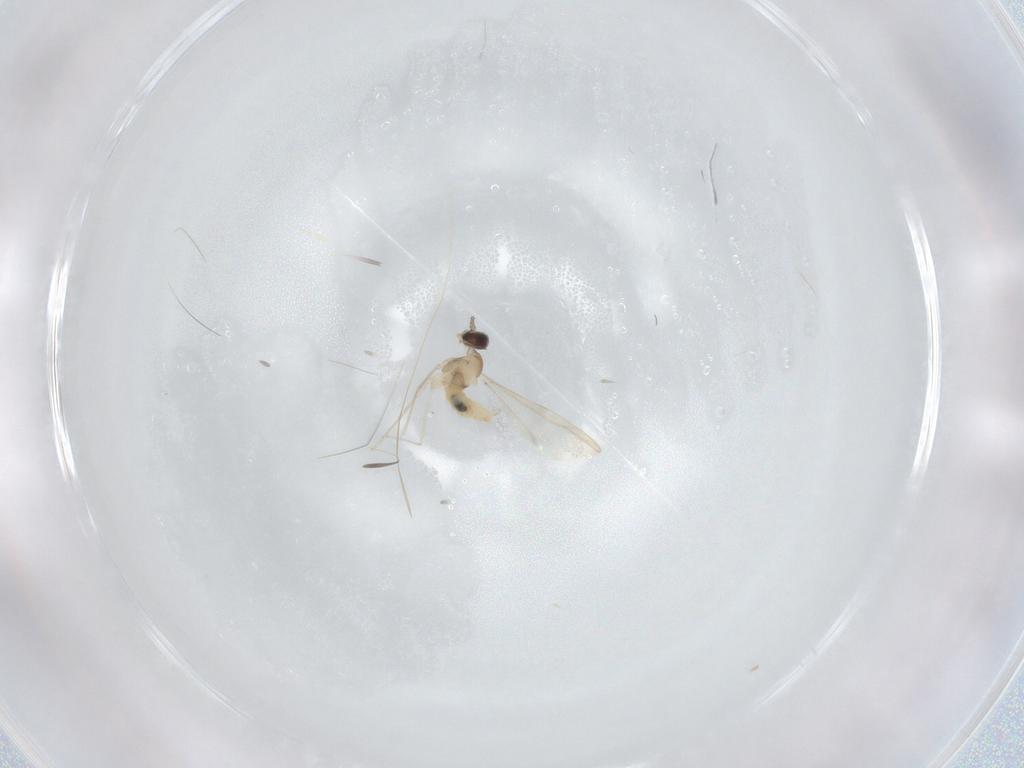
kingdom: Animalia
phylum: Arthropoda
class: Insecta
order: Diptera
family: Cecidomyiidae
